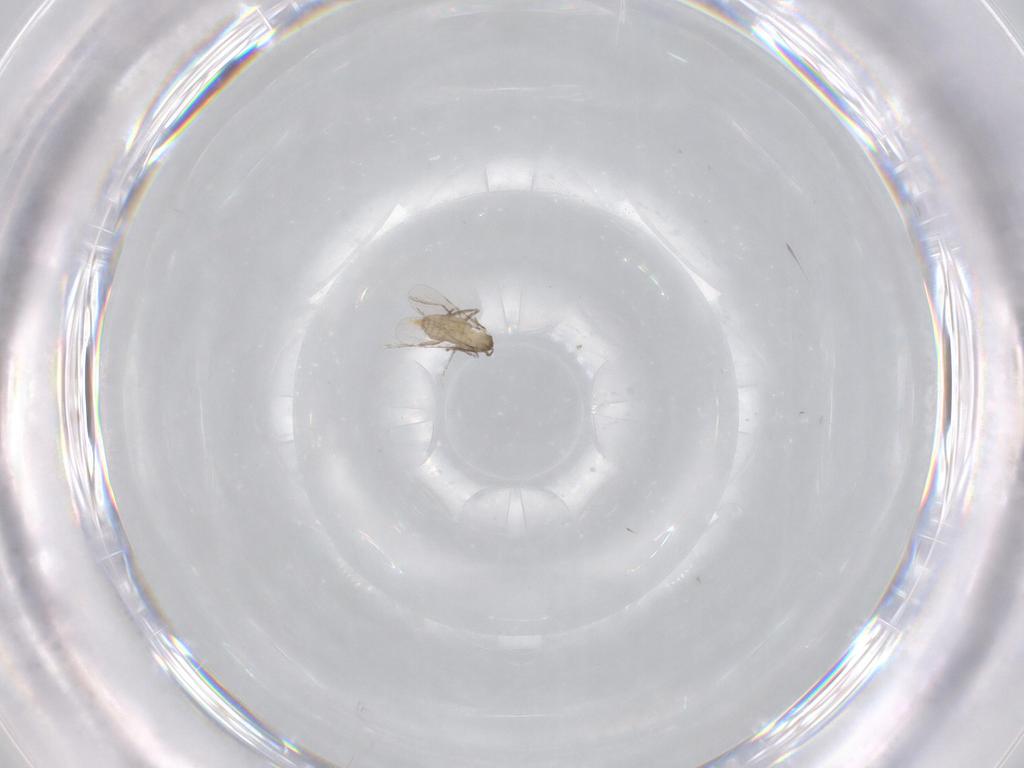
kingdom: Animalia
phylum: Arthropoda
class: Insecta
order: Diptera
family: Cecidomyiidae
